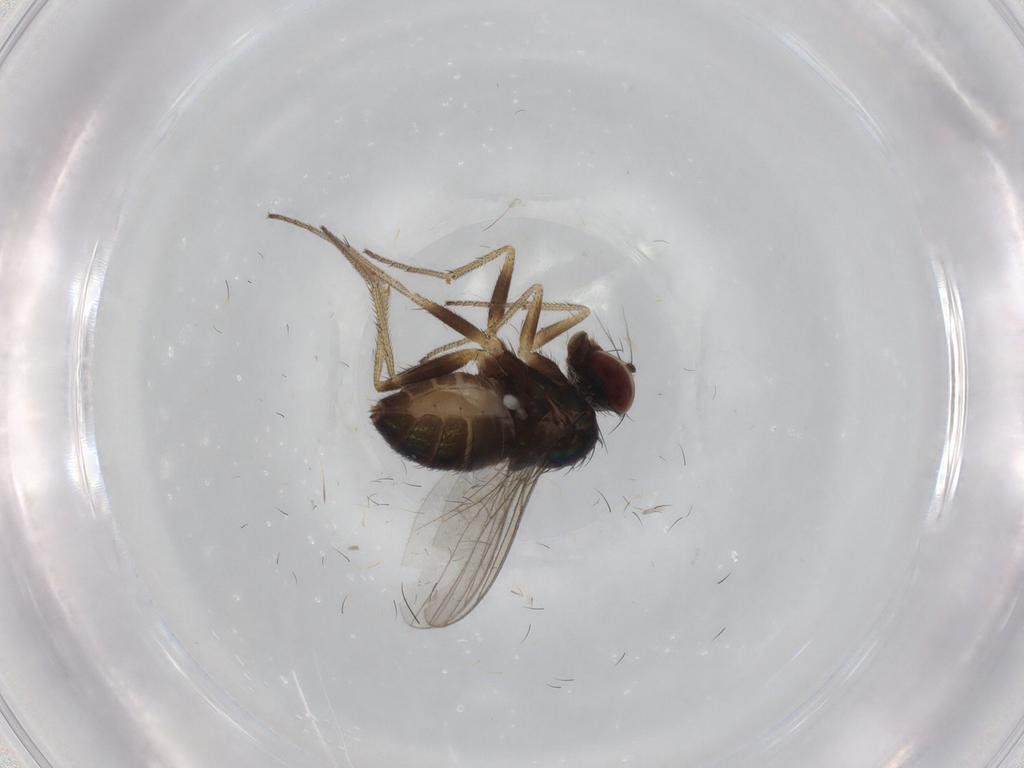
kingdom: Animalia
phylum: Arthropoda
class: Insecta
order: Diptera
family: Dolichopodidae
